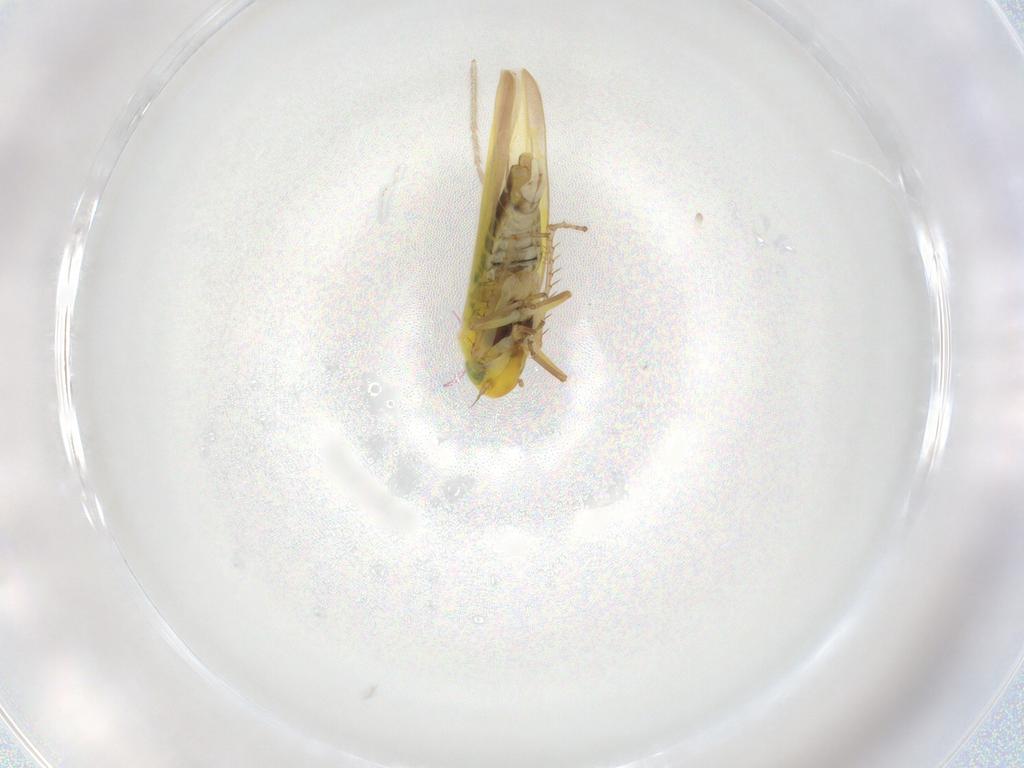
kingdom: Animalia
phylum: Arthropoda
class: Insecta
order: Hemiptera
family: Cicadellidae
